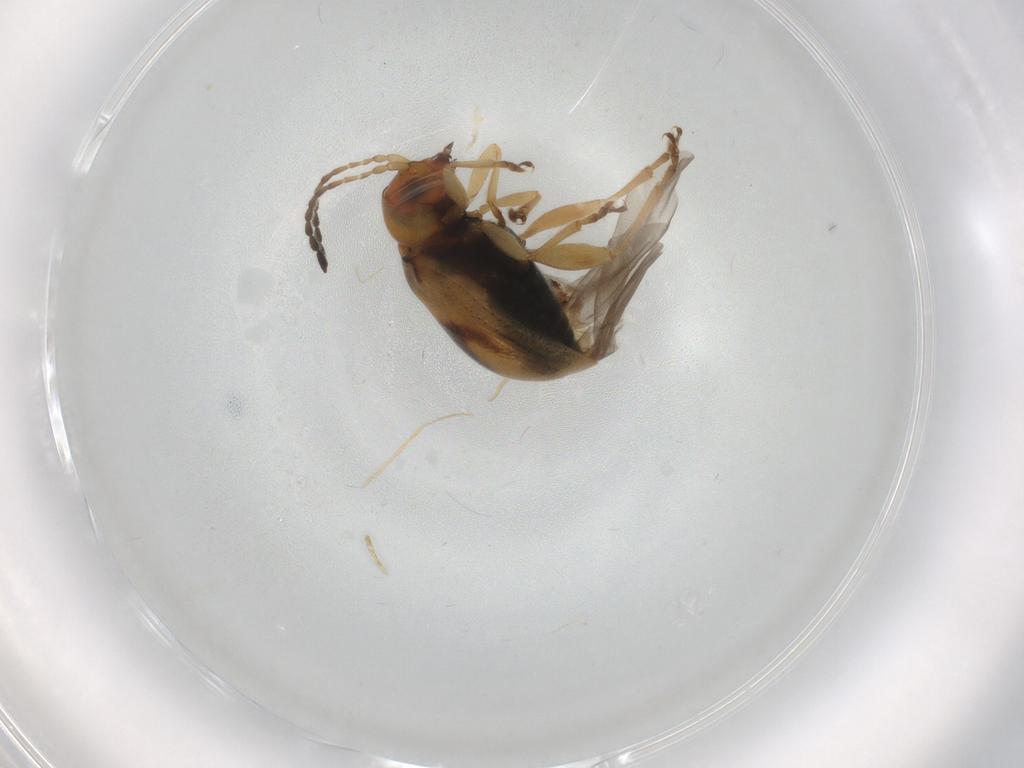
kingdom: Animalia
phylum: Arthropoda
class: Insecta
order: Coleoptera
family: Chrysomelidae
